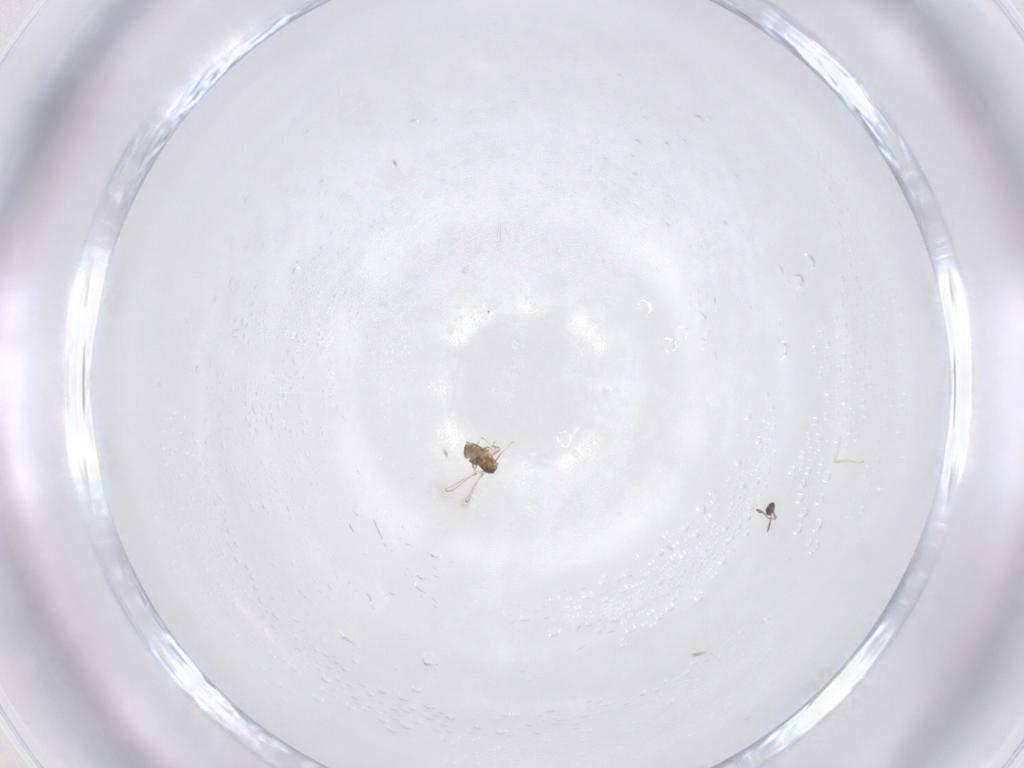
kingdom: Animalia
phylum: Arthropoda
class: Insecta
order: Hymenoptera
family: Mymaridae
